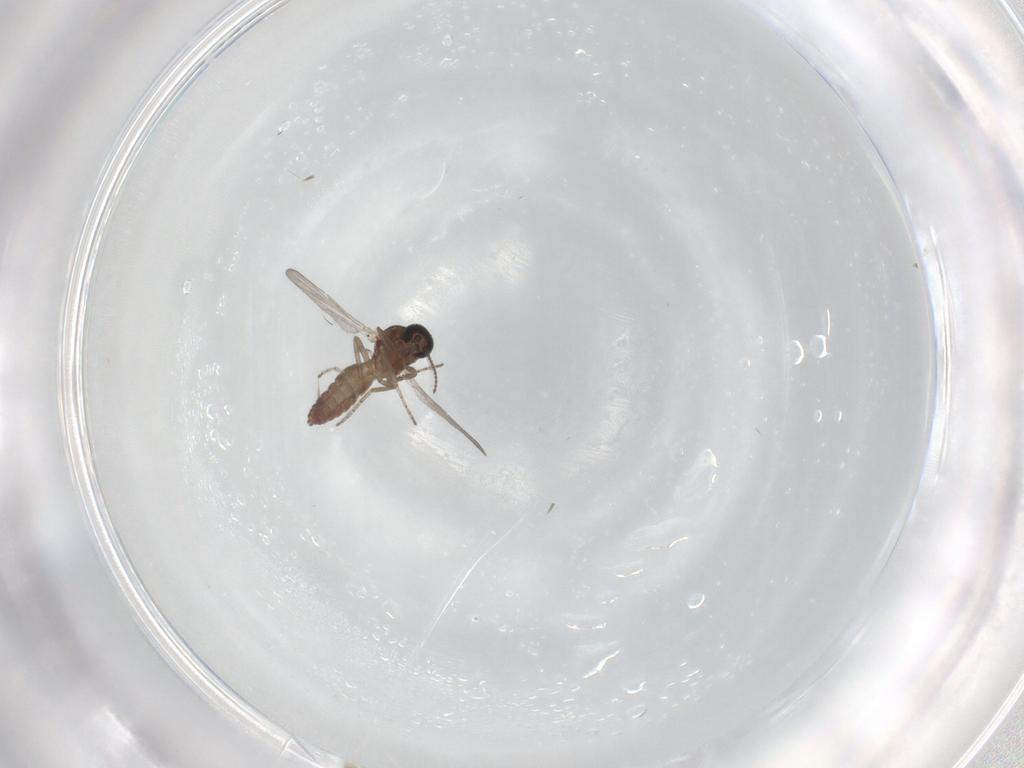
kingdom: Animalia
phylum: Arthropoda
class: Insecta
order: Diptera
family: Ceratopogonidae
